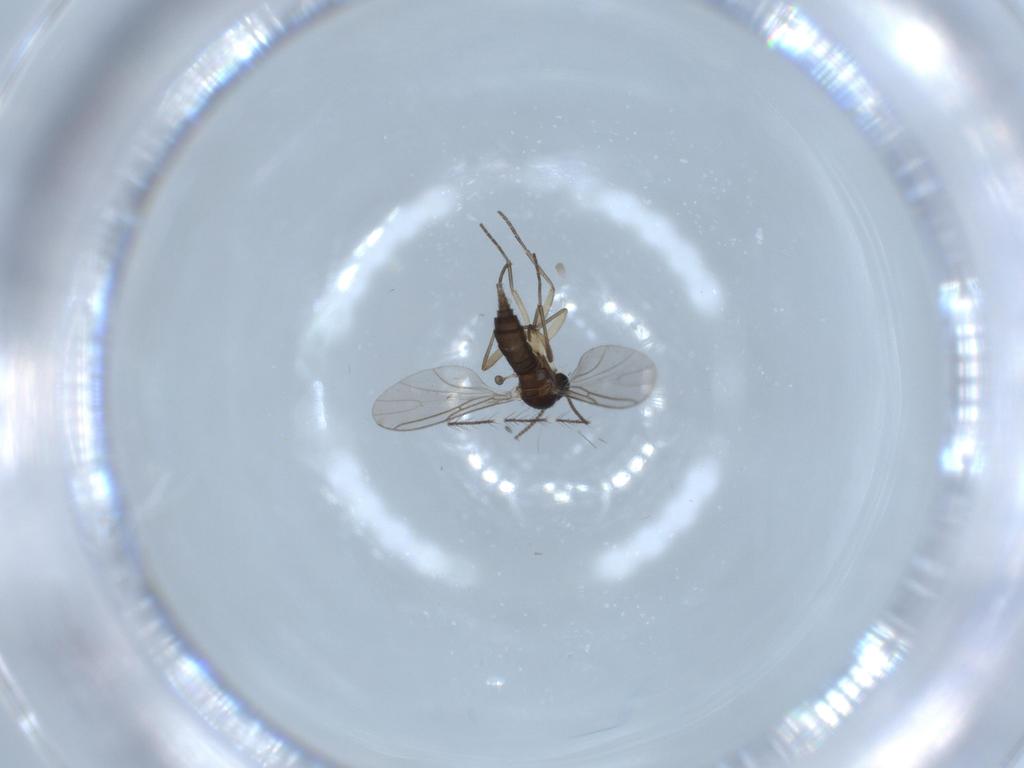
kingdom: Animalia
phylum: Arthropoda
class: Insecta
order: Diptera
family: Sciaridae
